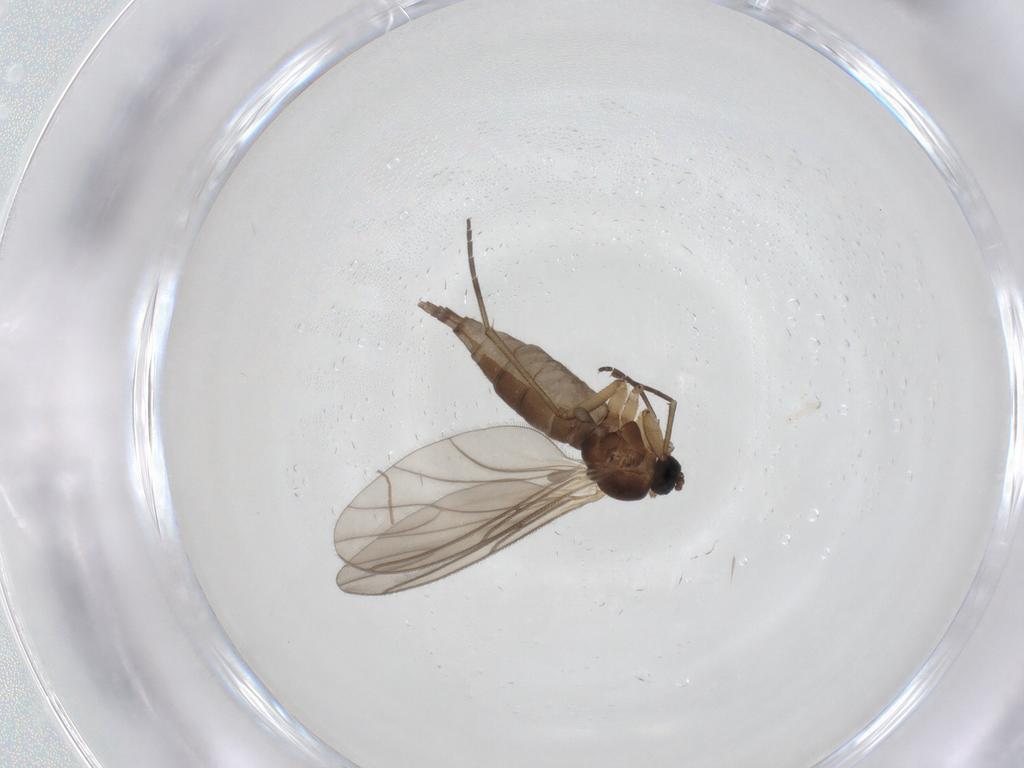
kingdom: Animalia
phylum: Arthropoda
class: Insecta
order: Diptera
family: Sciaridae
